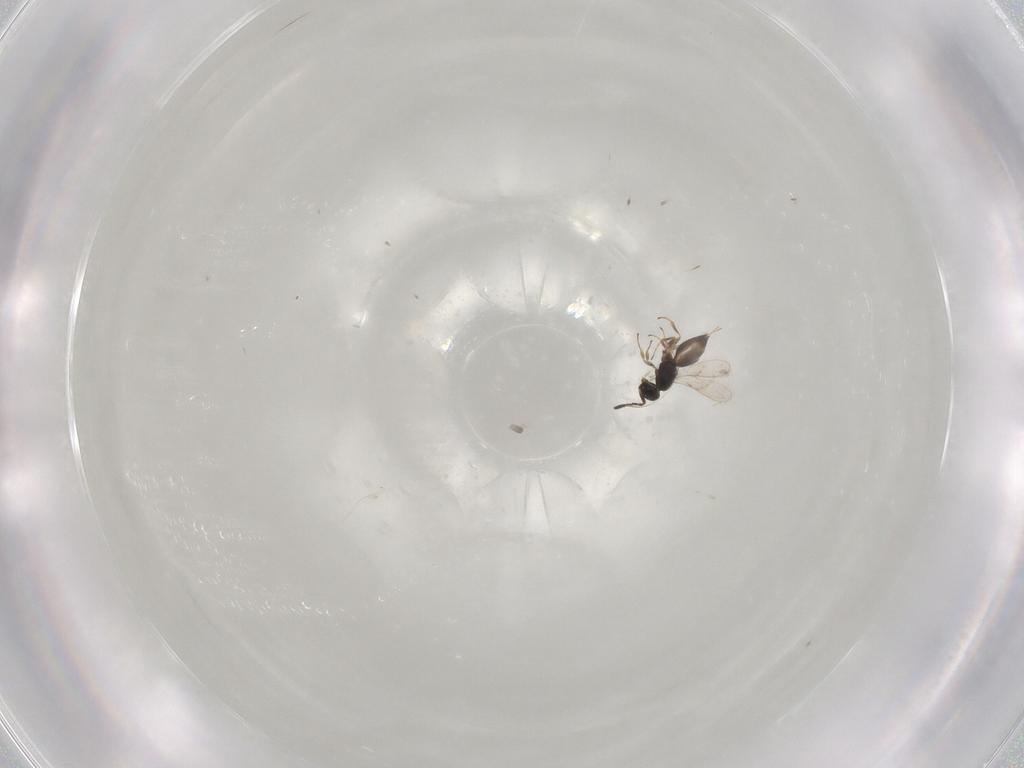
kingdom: Animalia
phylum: Arthropoda
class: Insecta
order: Hymenoptera
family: Scelionidae
